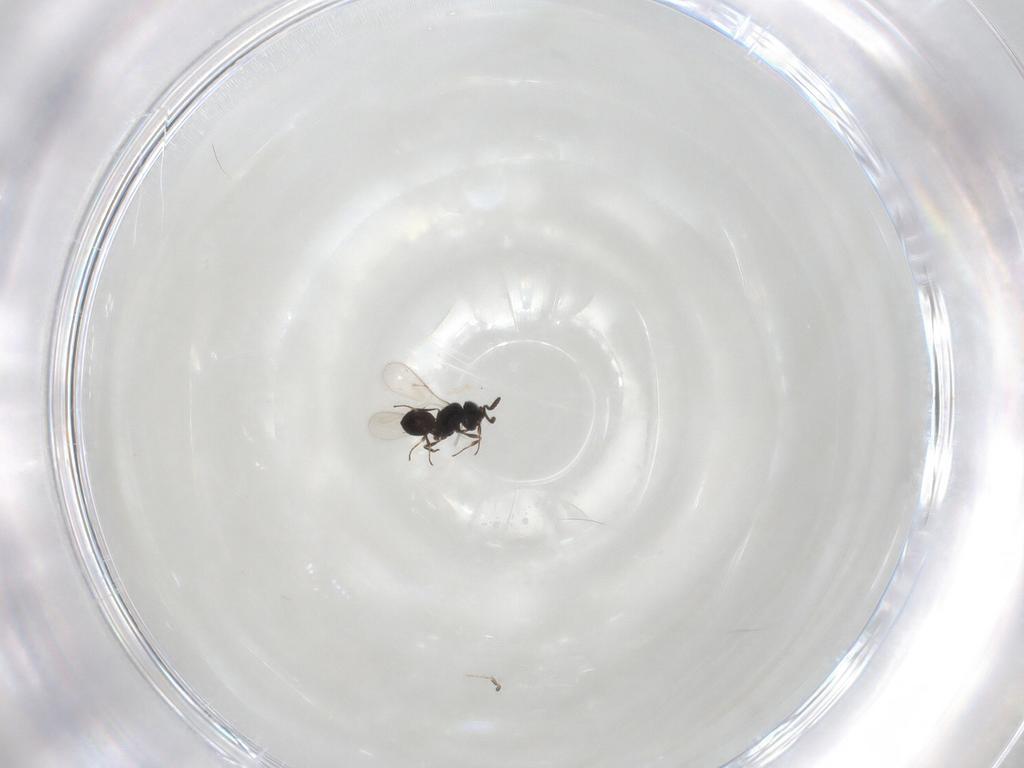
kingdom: Animalia
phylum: Arthropoda
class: Insecta
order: Hymenoptera
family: Scelionidae
